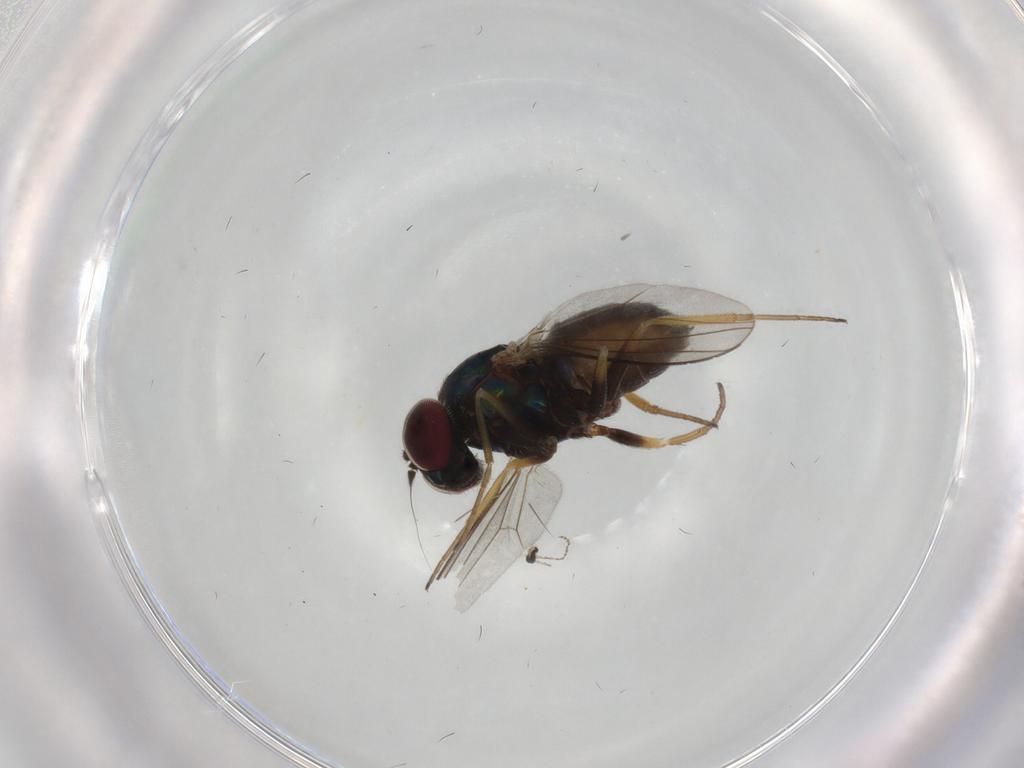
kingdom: Animalia
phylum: Arthropoda
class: Insecta
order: Diptera
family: Dolichopodidae
